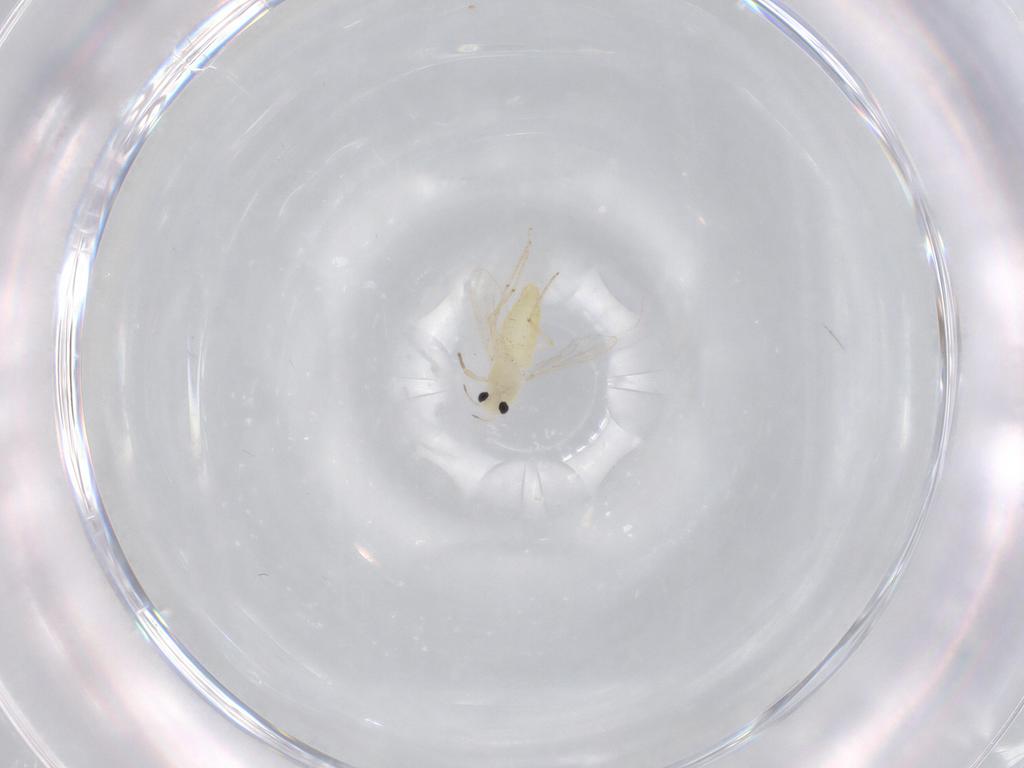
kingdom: Animalia
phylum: Arthropoda
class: Insecta
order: Diptera
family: Chironomidae
